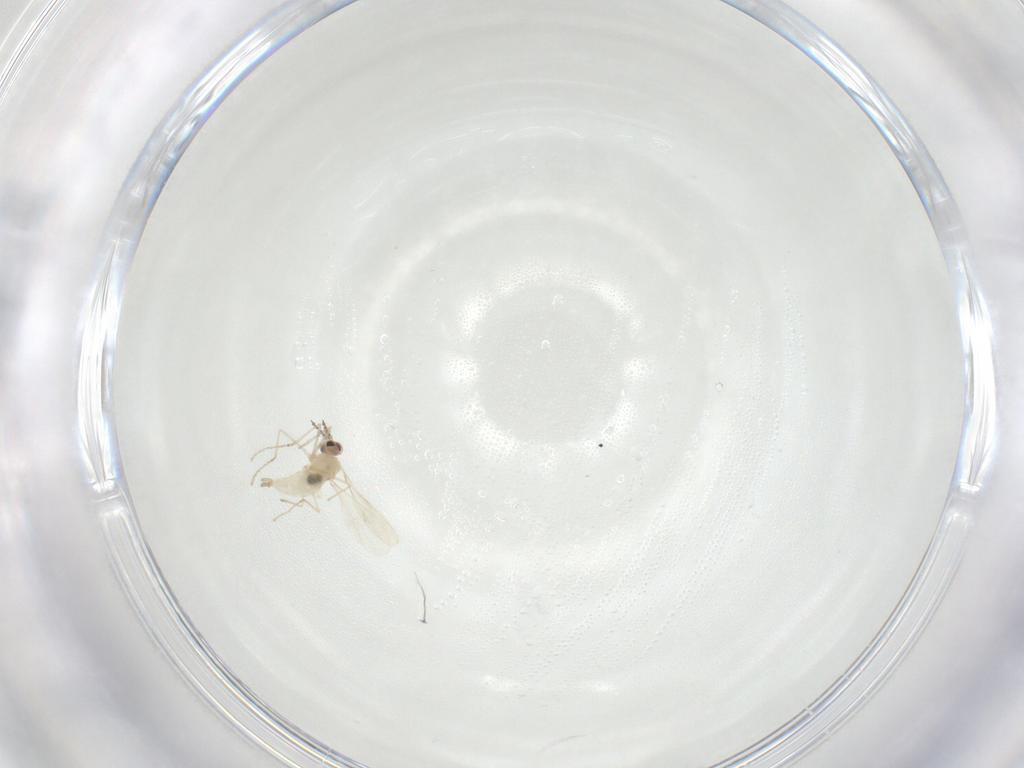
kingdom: Animalia
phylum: Arthropoda
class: Insecta
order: Diptera
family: Cecidomyiidae
